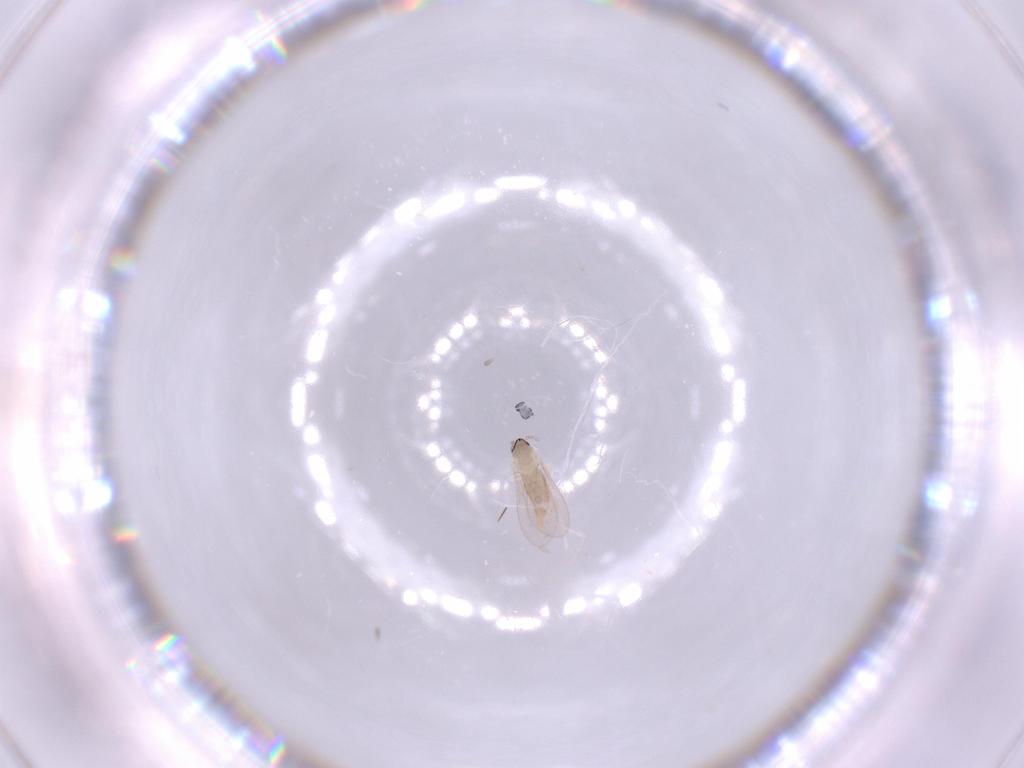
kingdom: Animalia
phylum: Arthropoda
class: Insecta
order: Diptera
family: Cecidomyiidae
